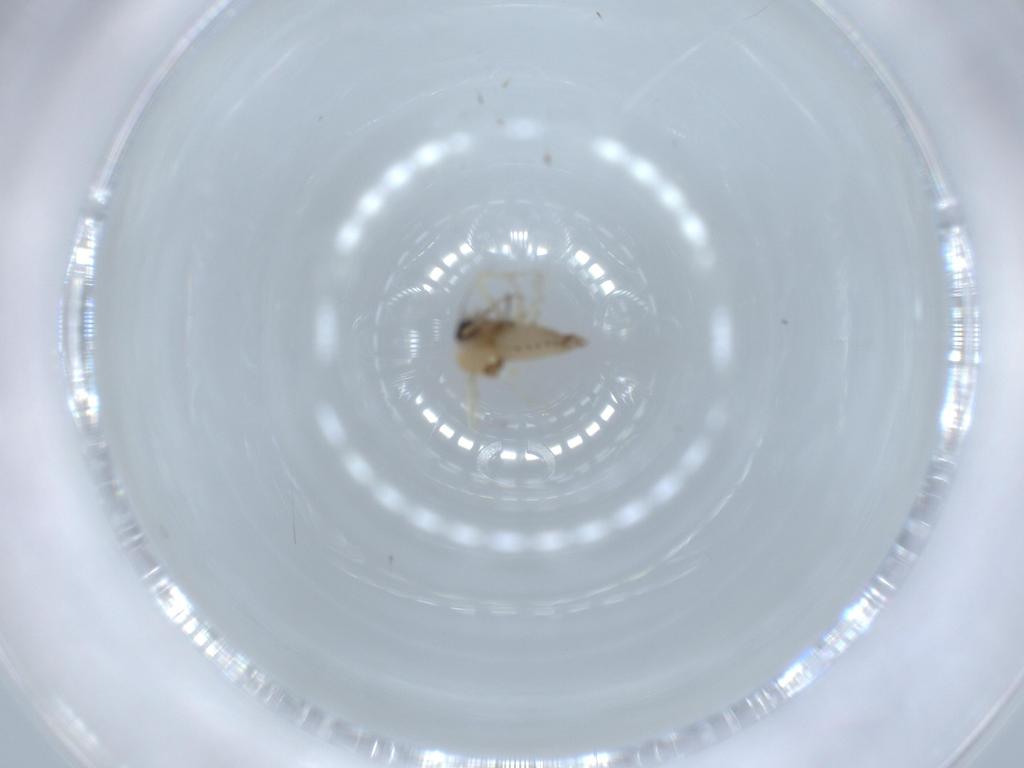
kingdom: Animalia
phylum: Arthropoda
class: Insecta
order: Diptera
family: Ceratopogonidae
